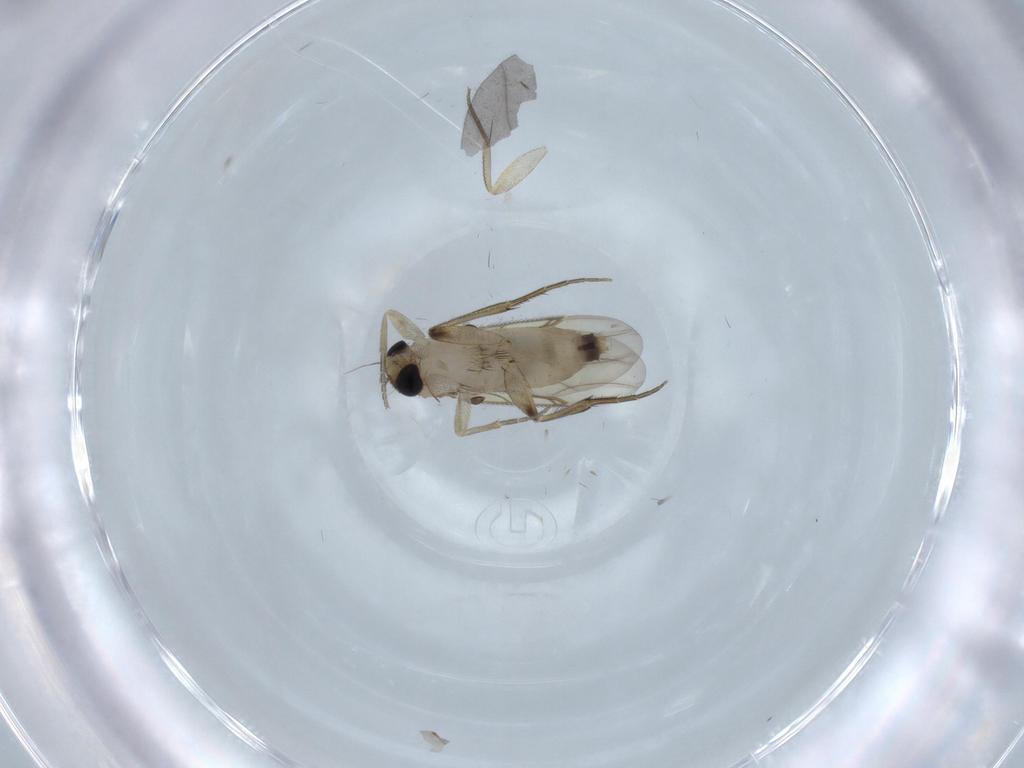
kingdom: Animalia
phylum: Arthropoda
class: Insecta
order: Diptera
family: Phoridae
